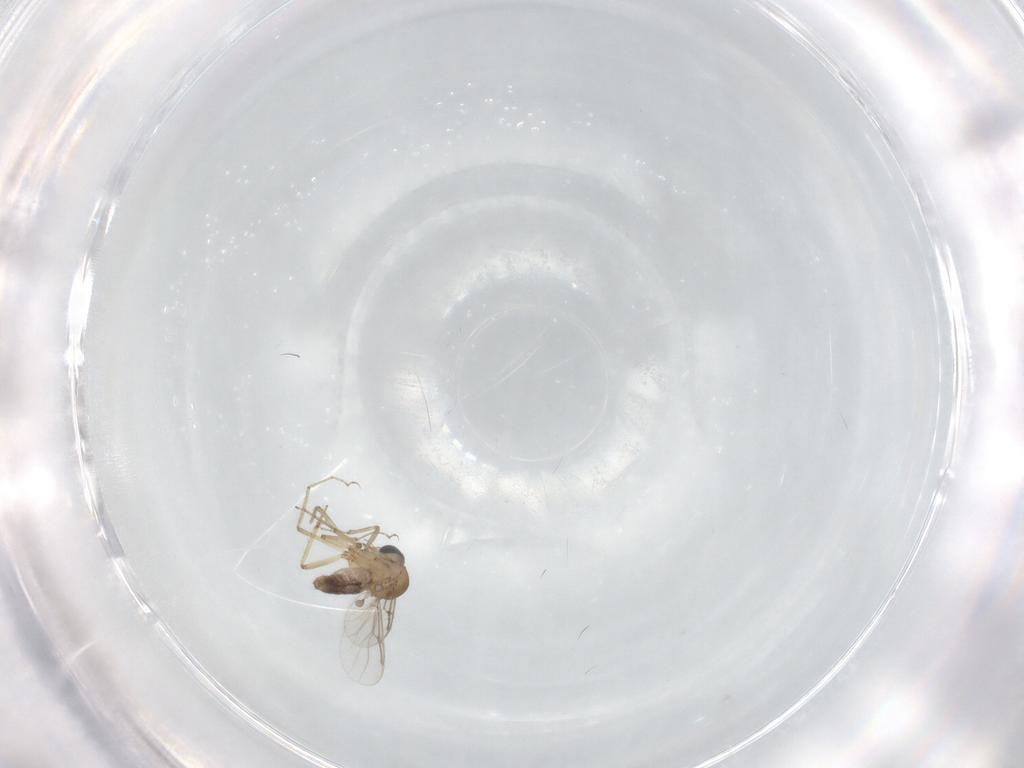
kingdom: Animalia
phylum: Arthropoda
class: Insecta
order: Diptera
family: Ceratopogonidae
